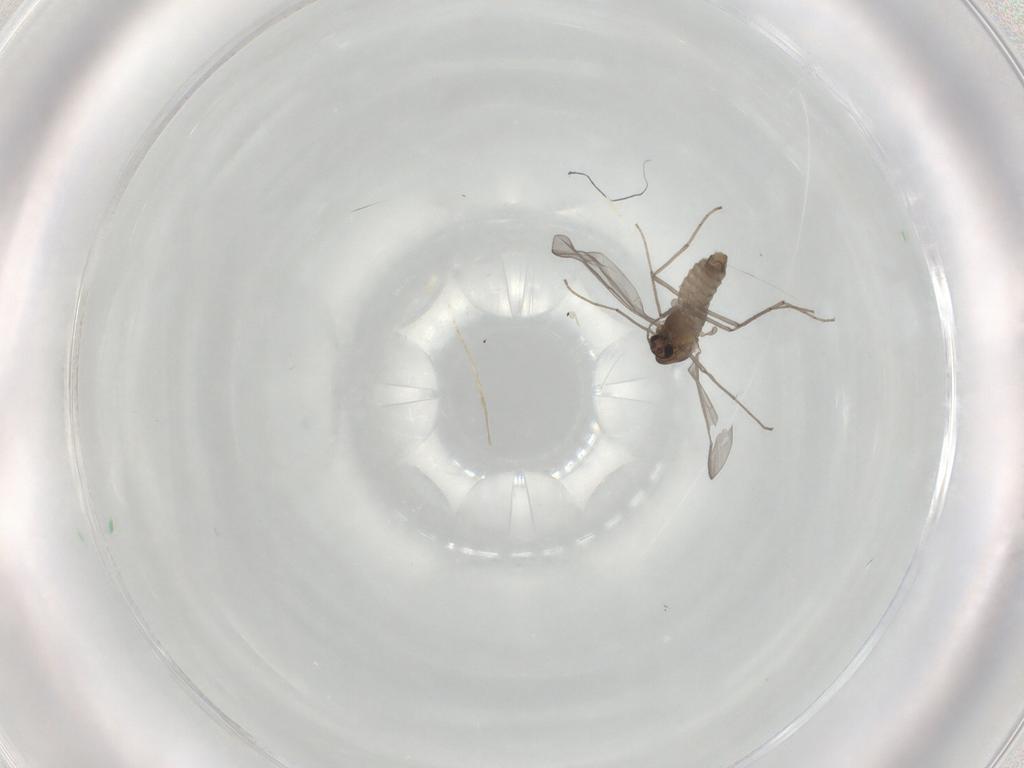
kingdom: Animalia
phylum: Arthropoda
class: Insecta
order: Diptera
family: Chironomidae
